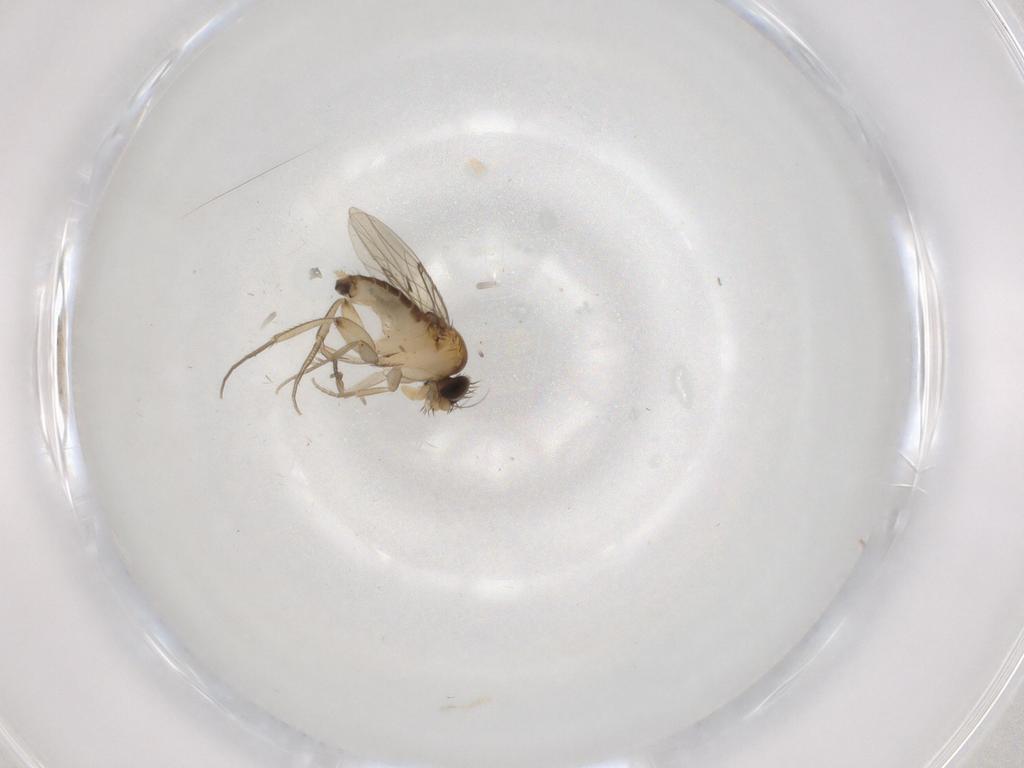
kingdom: Animalia
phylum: Arthropoda
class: Insecta
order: Diptera
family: Phoridae
